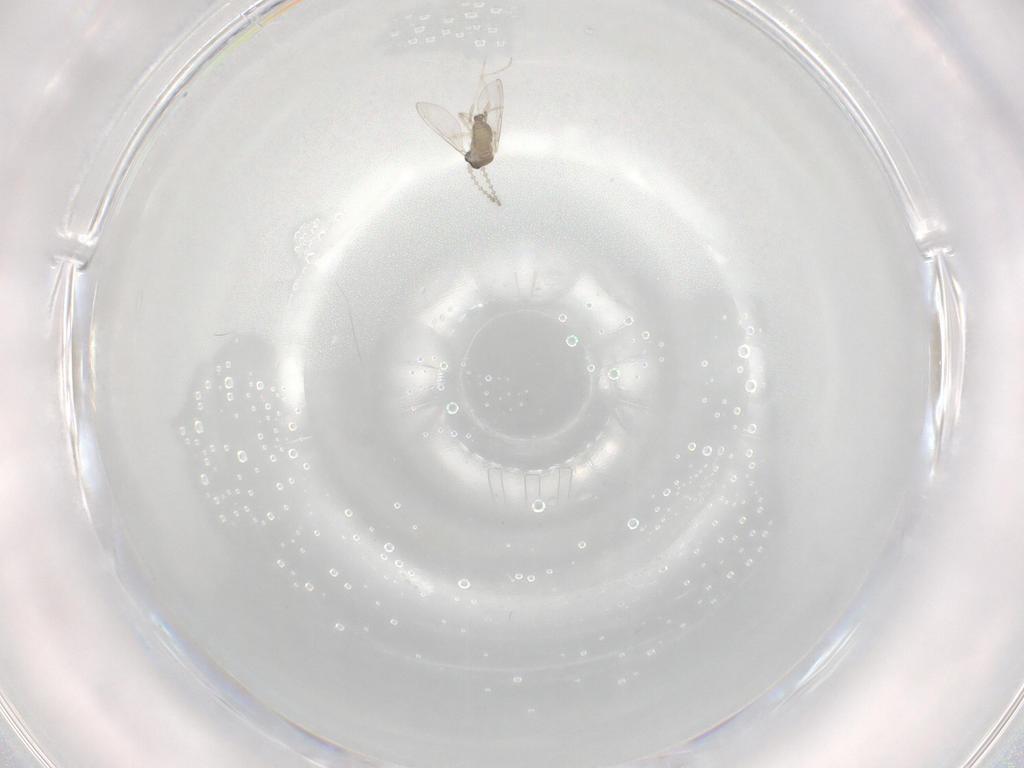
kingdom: Animalia
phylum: Arthropoda
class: Insecta
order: Diptera
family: Cecidomyiidae
